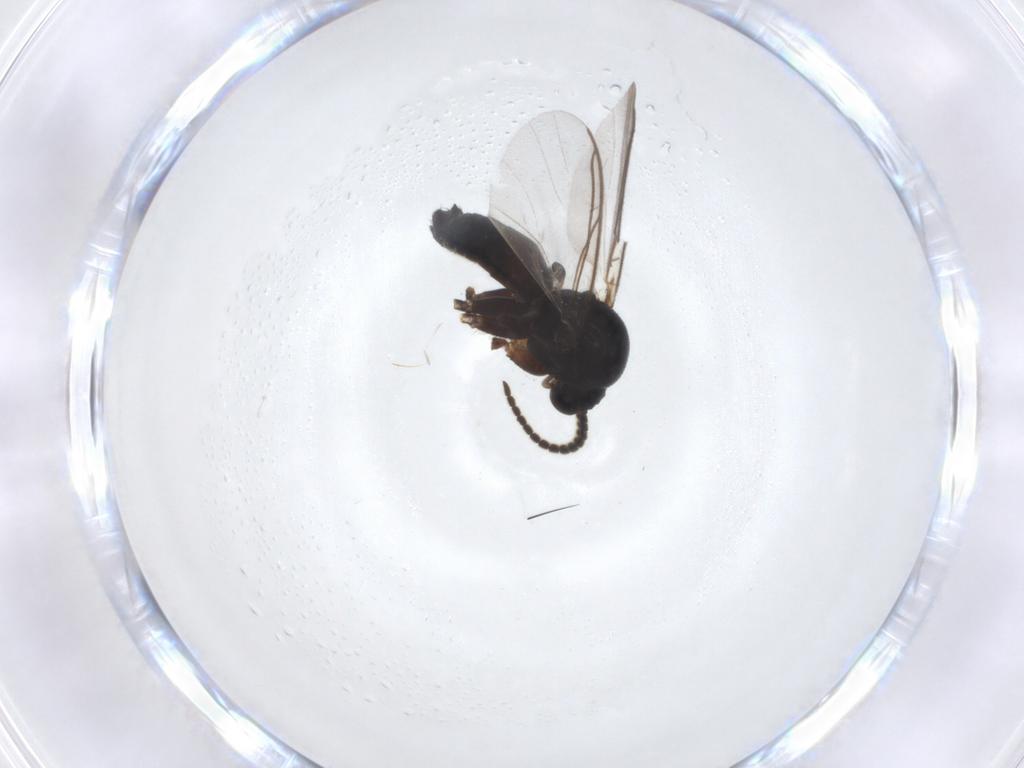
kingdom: Animalia
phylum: Arthropoda
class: Insecta
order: Diptera
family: Mycetophilidae
